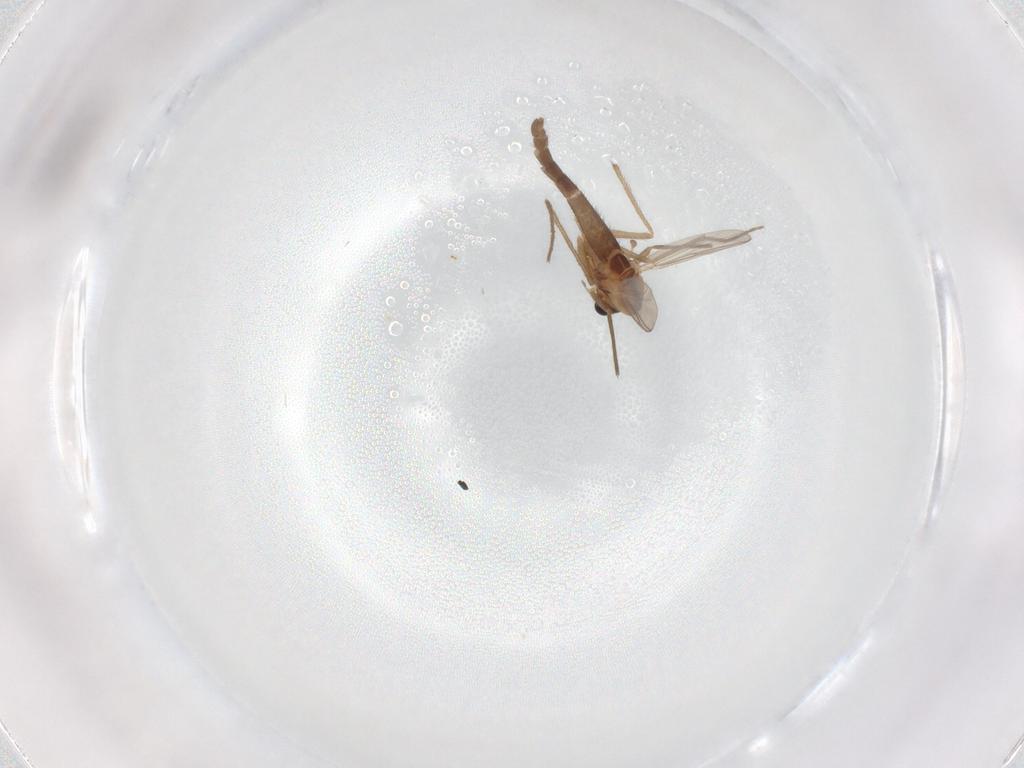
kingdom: Animalia
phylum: Arthropoda
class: Insecta
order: Diptera
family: Chironomidae
